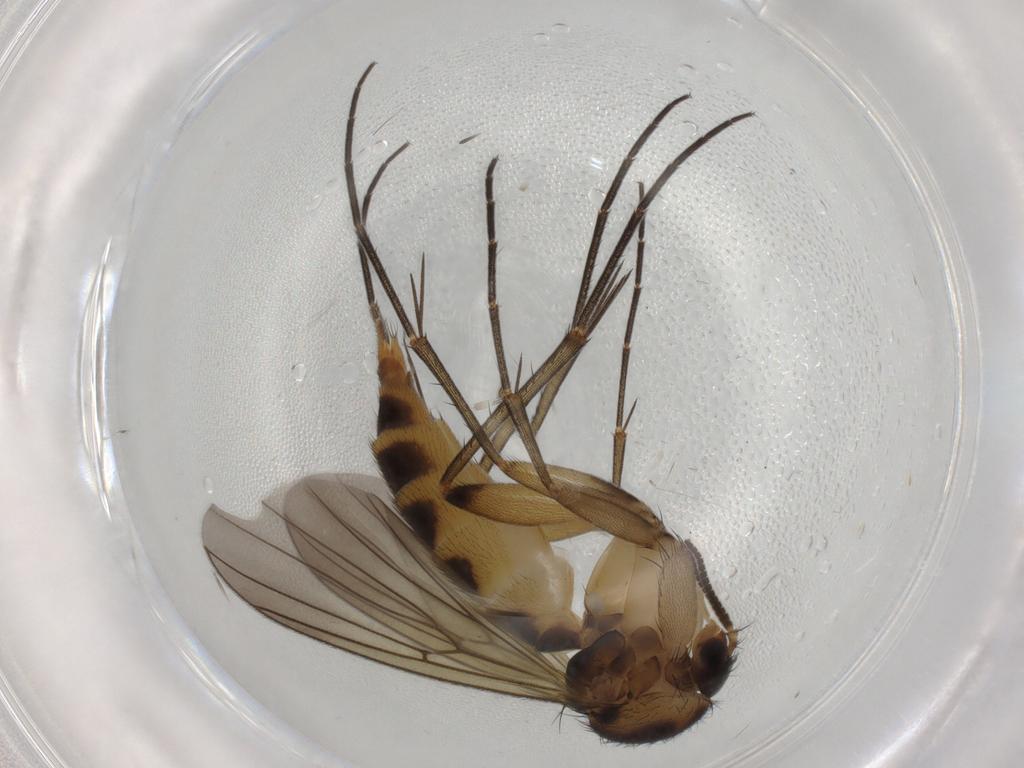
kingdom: Animalia
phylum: Arthropoda
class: Insecta
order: Diptera
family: Mycetophilidae
